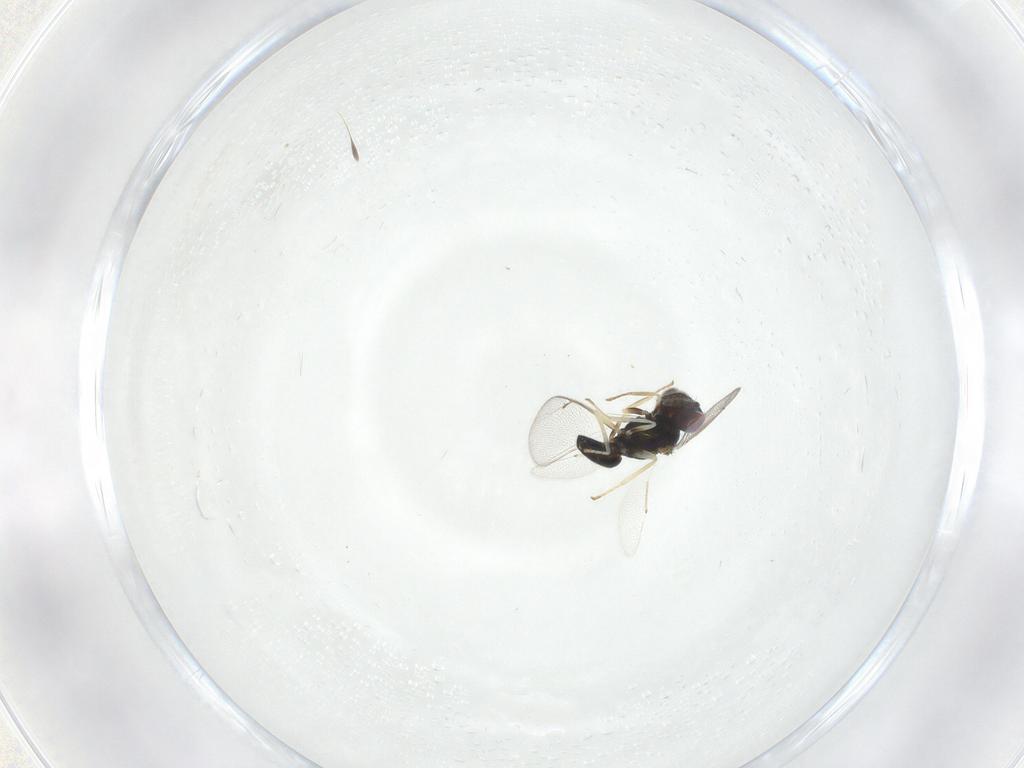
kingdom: Animalia
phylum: Arthropoda
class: Insecta
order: Hymenoptera
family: Eulophidae
